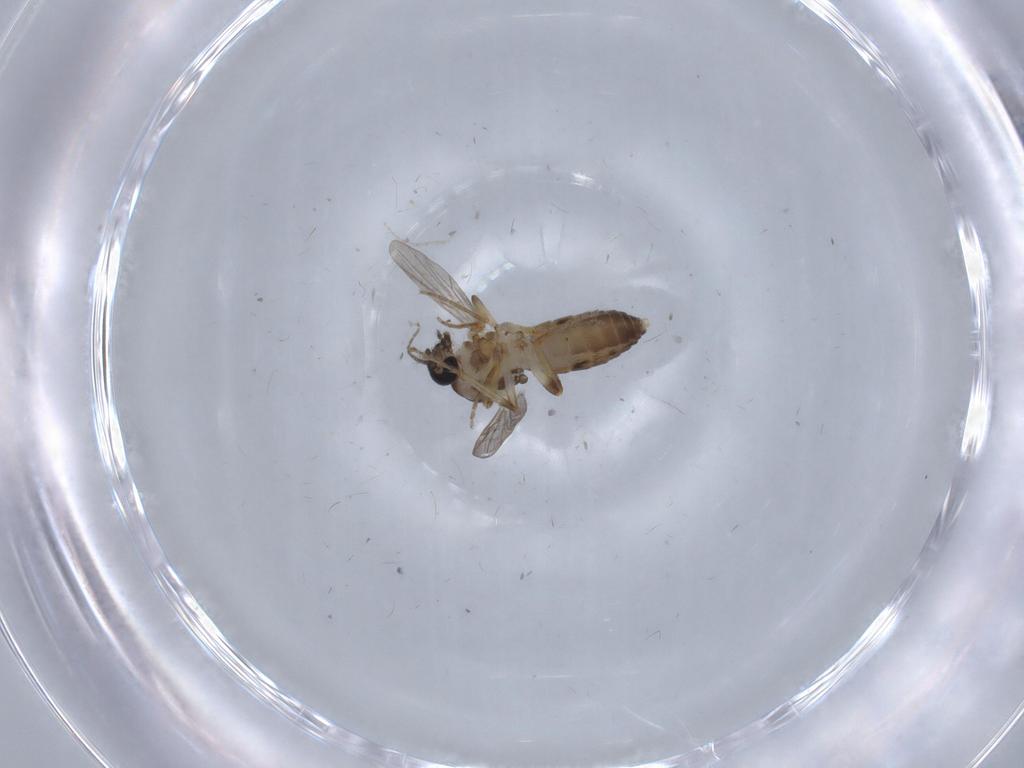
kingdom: Animalia
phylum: Arthropoda
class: Insecta
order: Diptera
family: Ceratopogonidae
